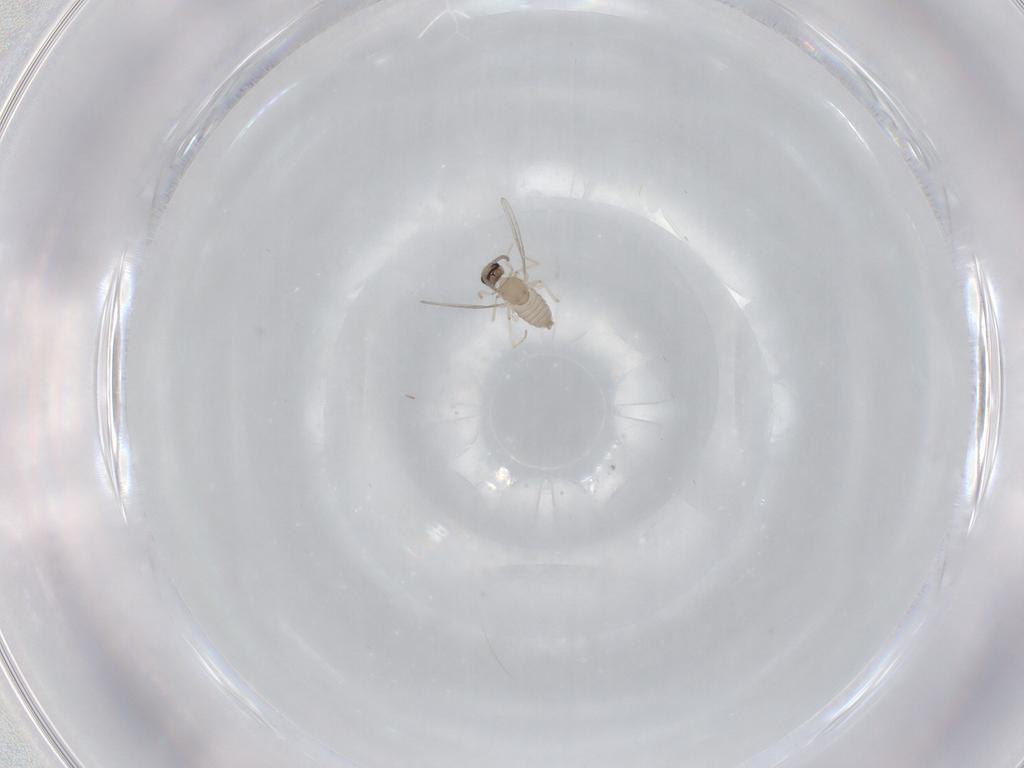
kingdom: Animalia
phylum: Arthropoda
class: Insecta
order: Diptera
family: Cecidomyiidae
